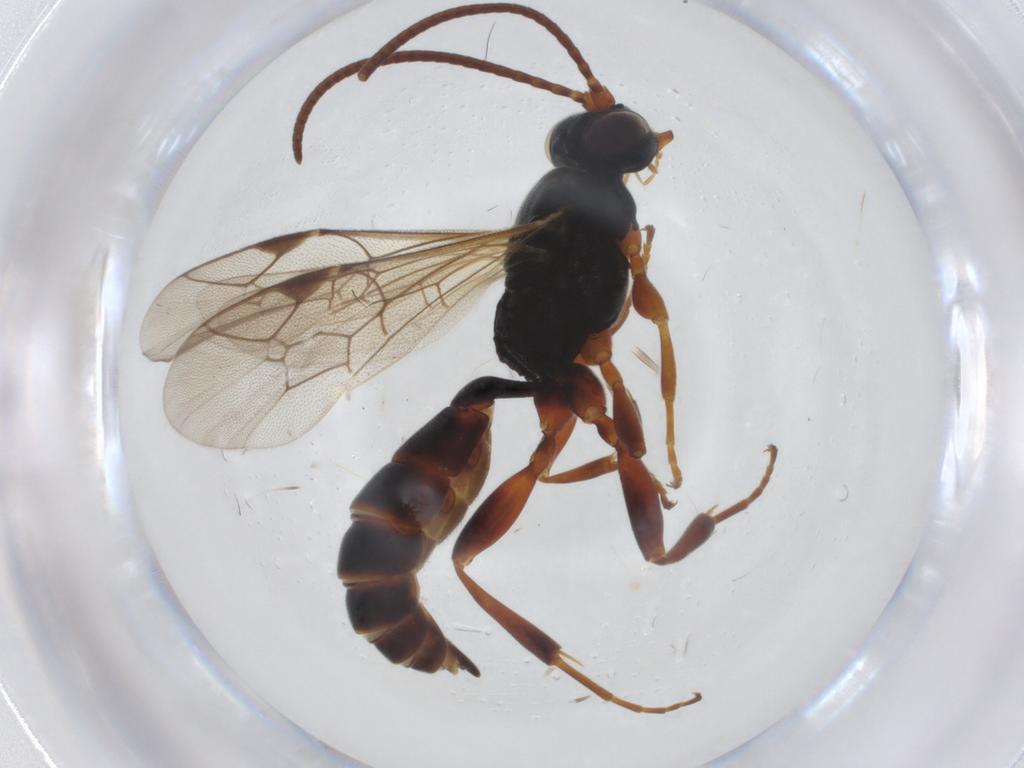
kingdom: Animalia
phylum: Arthropoda
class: Insecta
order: Hymenoptera
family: Ichneumonidae
